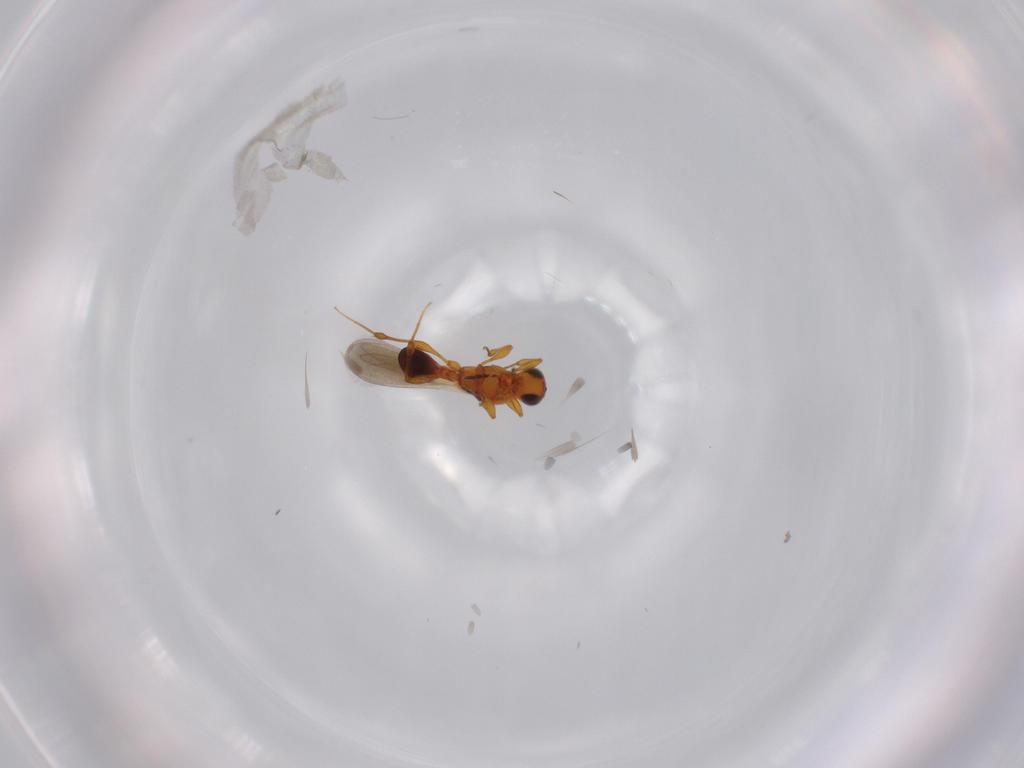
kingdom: Animalia
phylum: Arthropoda
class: Insecta
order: Hymenoptera
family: Platygastridae
